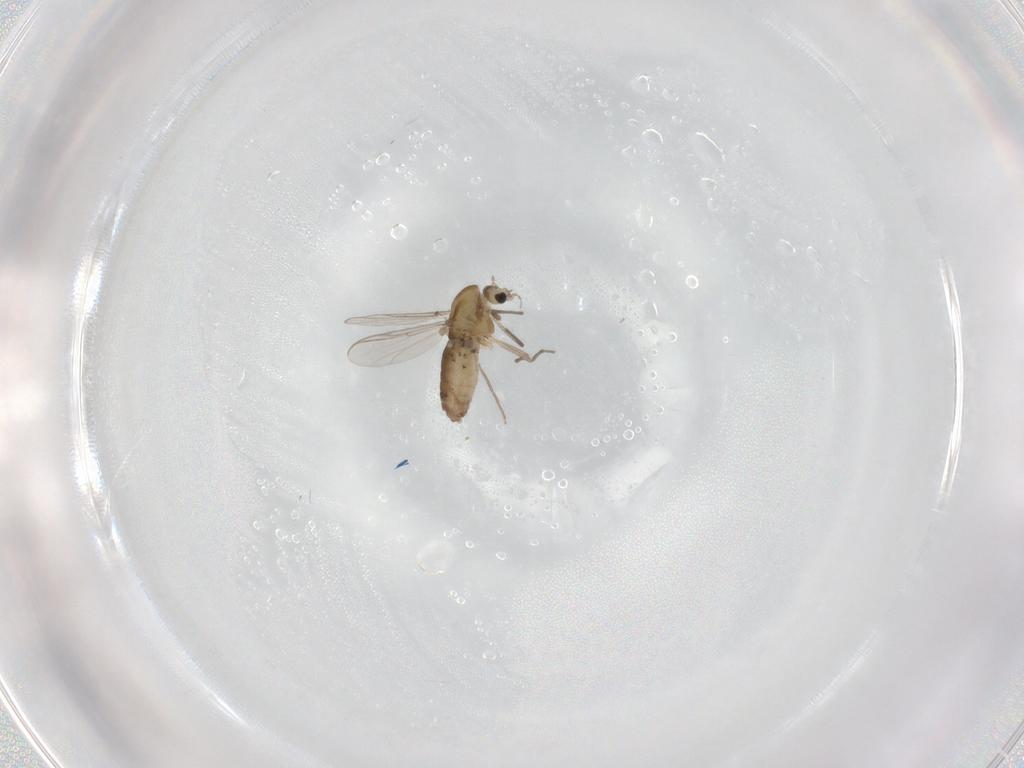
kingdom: Animalia
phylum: Arthropoda
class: Insecta
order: Diptera
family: Chironomidae
